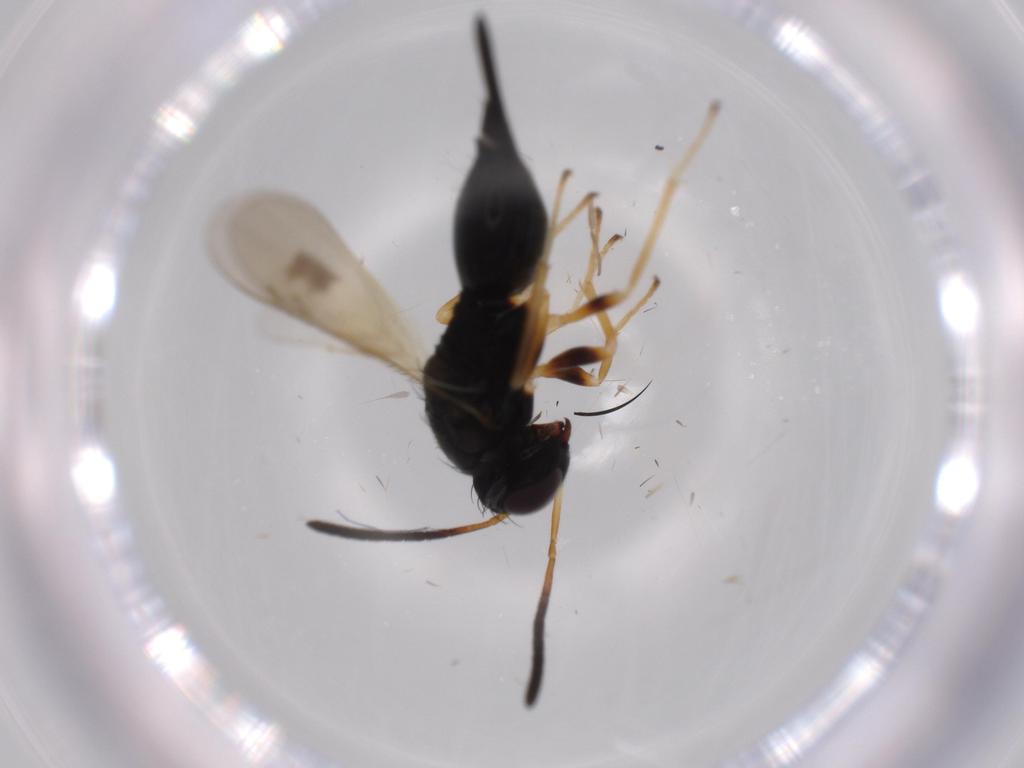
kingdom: Animalia
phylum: Arthropoda
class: Insecta
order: Hymenoptera
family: Pteromalidae
